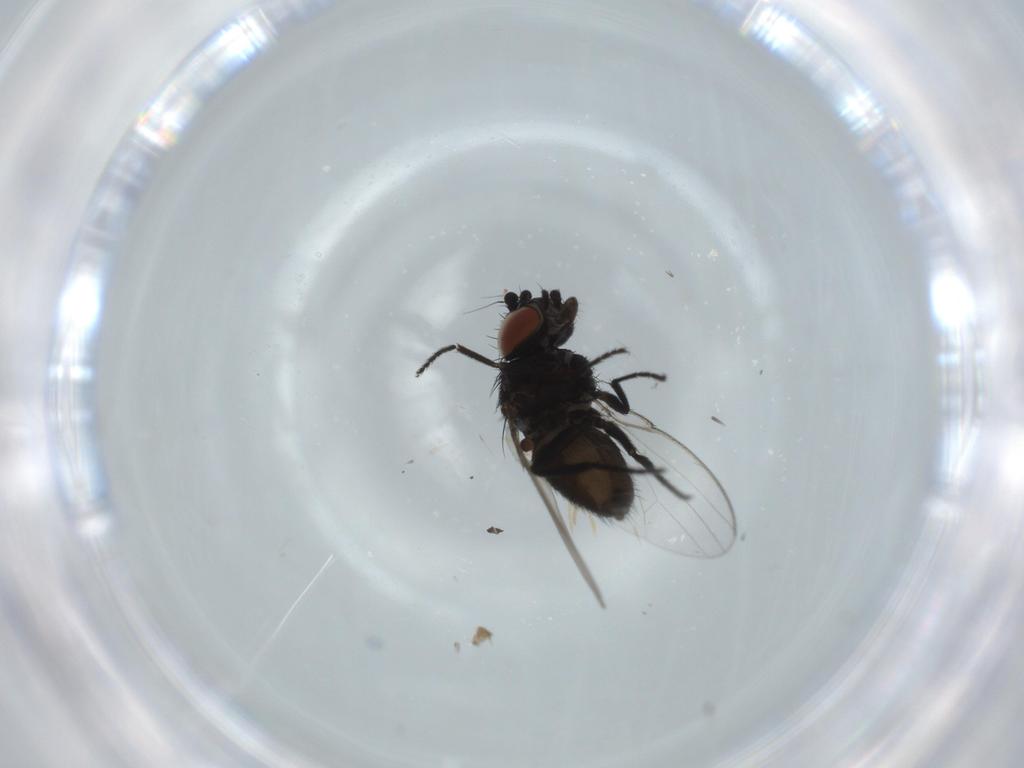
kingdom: Animalia
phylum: Arthropoda
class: Insecta
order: Diptera
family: Milichiidae
